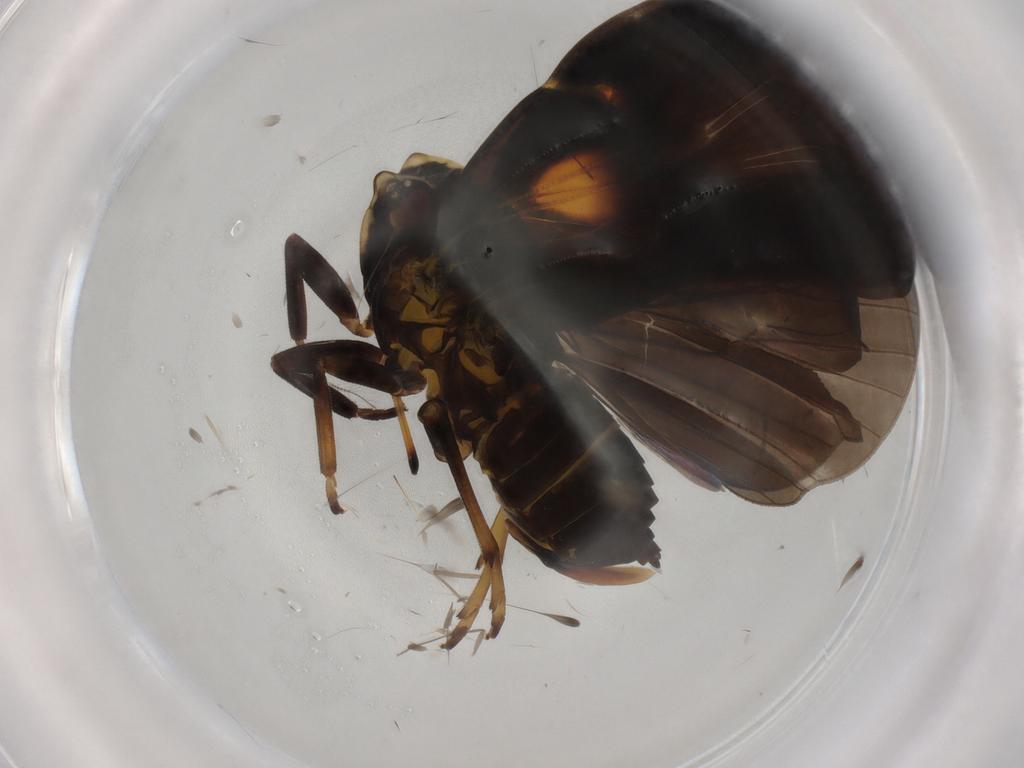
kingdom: Animalia
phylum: Arthropoda
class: Insecta
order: Hemiptera
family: Cicadellidae
